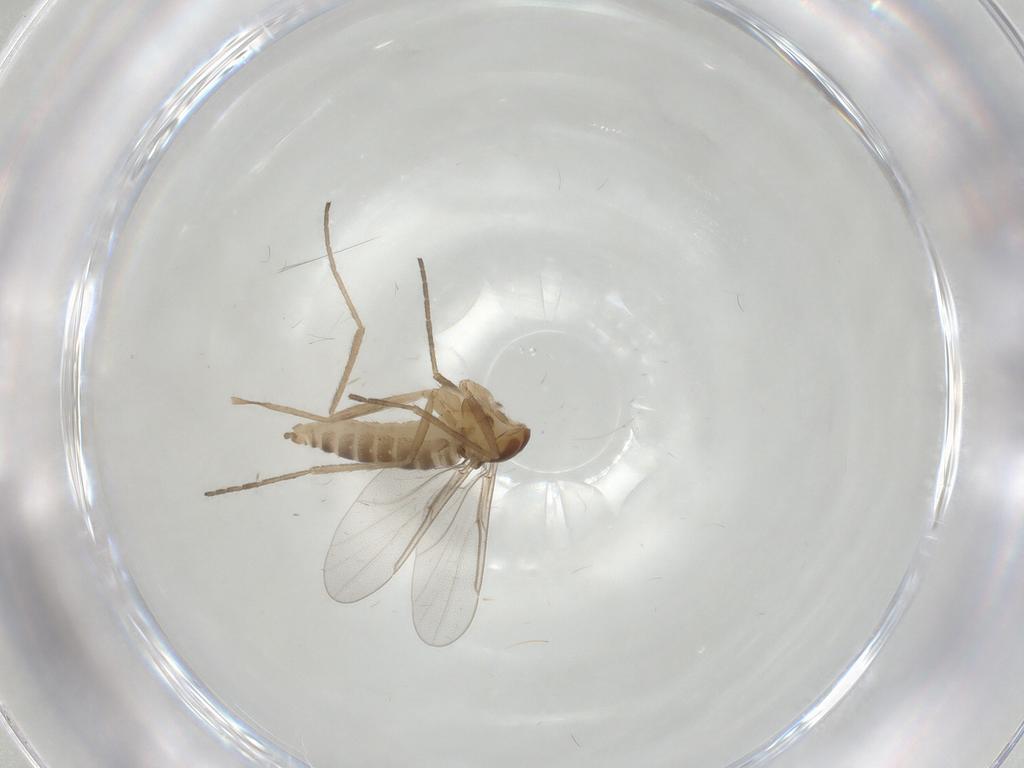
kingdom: Animalia
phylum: Arthropoda
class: Insecta
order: Diptera
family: Cecidomyiidae
